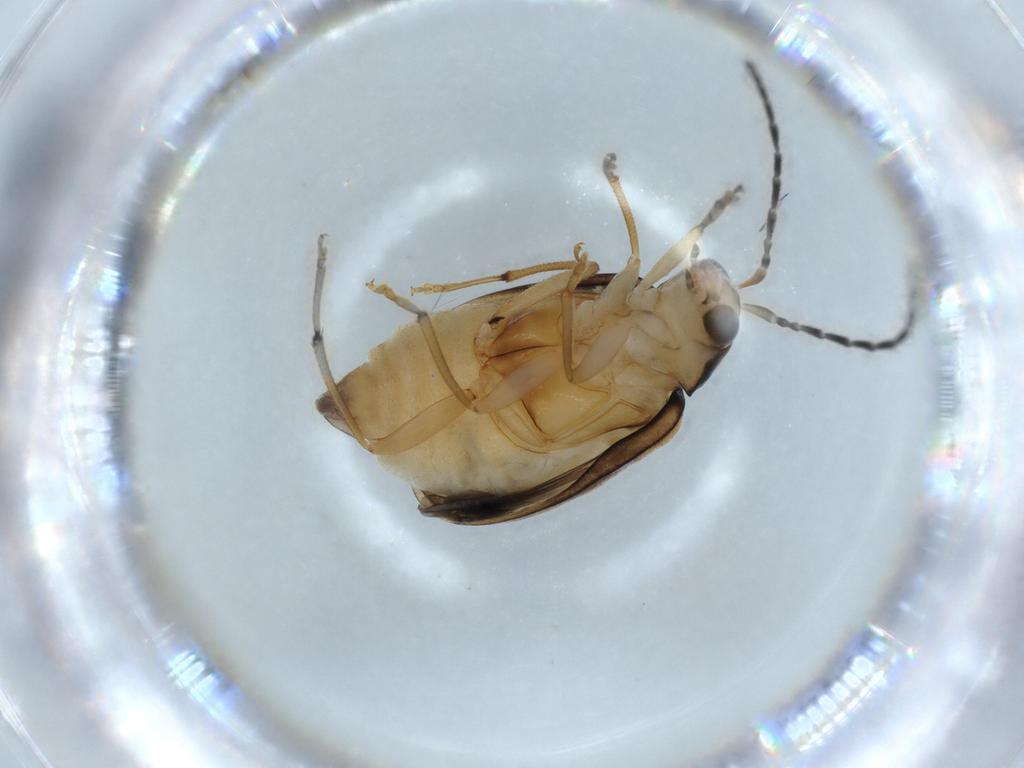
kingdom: Animalia
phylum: Arthropoda
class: Insecta
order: Coleoptera
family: Chrysomelidae
